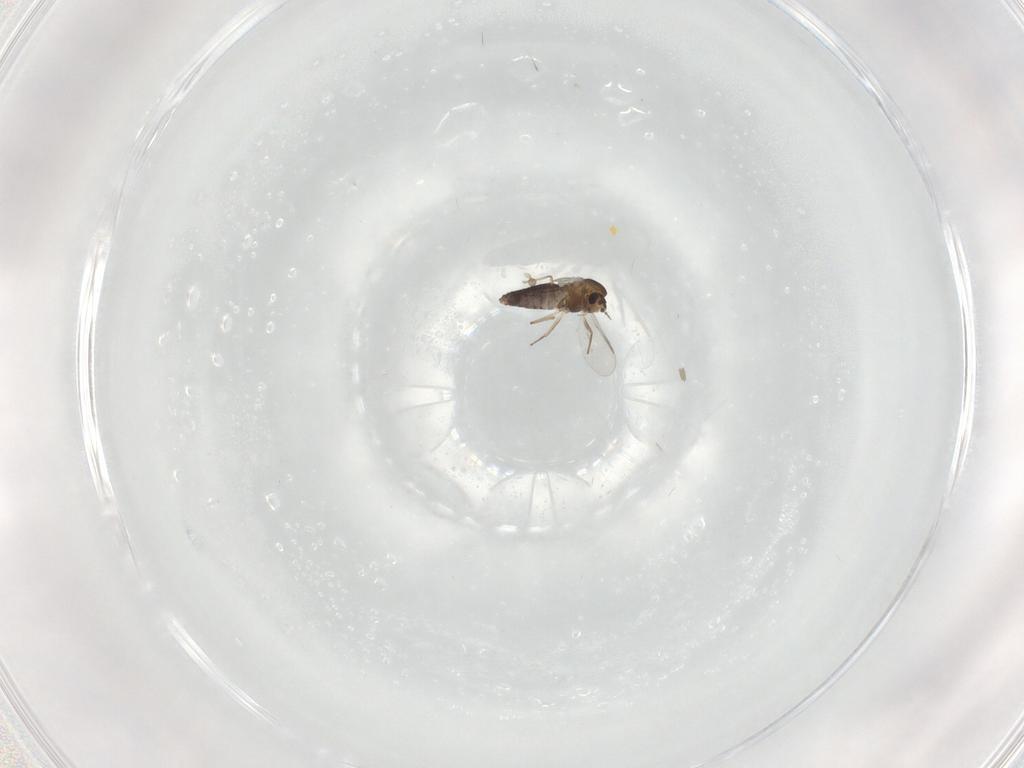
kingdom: Animalia
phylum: Arthropoda
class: Insecta
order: Diptera
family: Chironomidae
